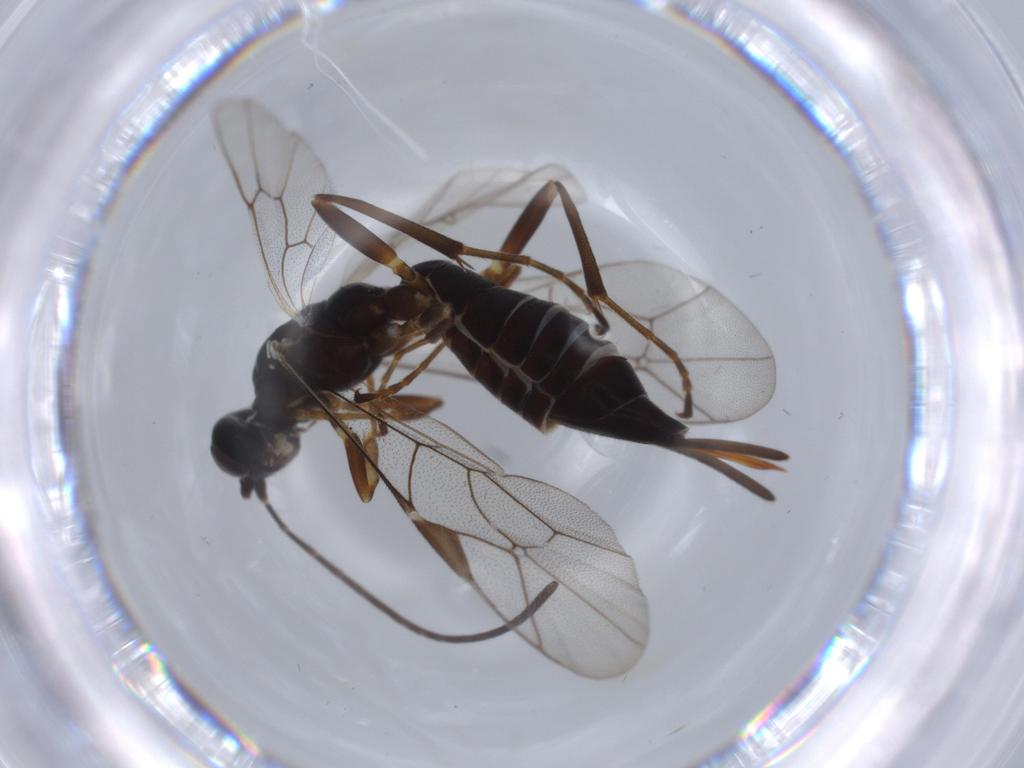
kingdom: Animalia
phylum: Arthropoda
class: Insecta
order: Hymenoptera
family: Ichneumonidae
